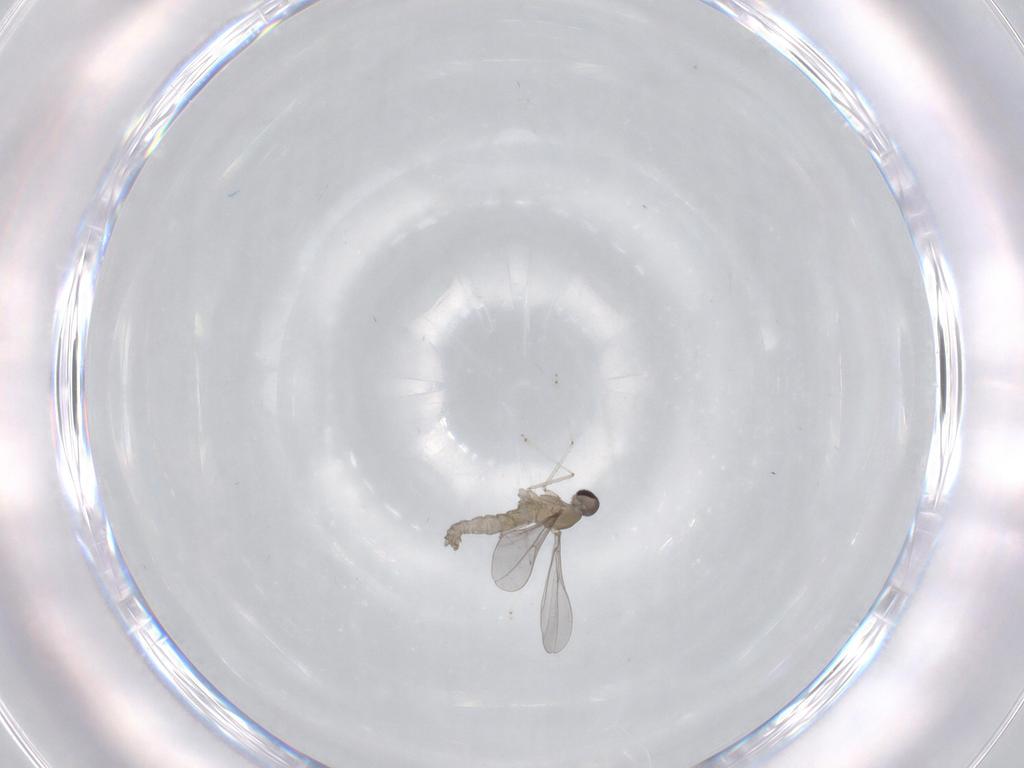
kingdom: Animalia
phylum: Arthropoda
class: Insecta
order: Diptera
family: Cecidomyiidae
